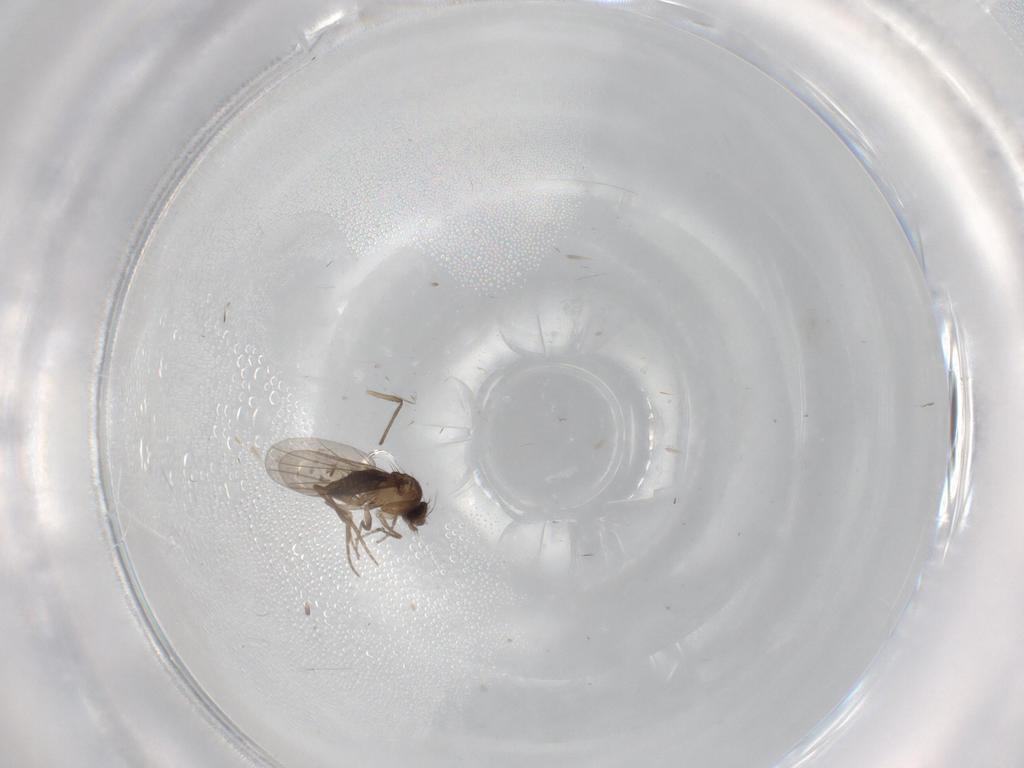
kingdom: Animalia
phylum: Arthropoda
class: Insecta
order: Diptera
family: Phoridae
